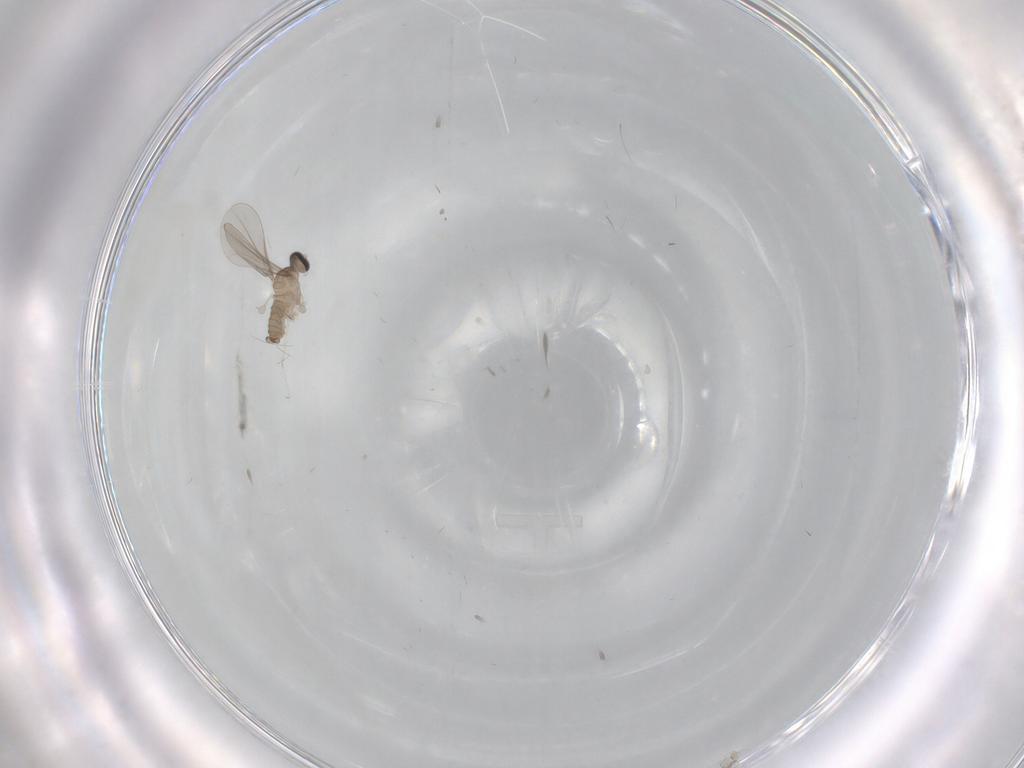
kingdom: Animalia
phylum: Arthropoda
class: Insecta
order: Diptera
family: Cecidomyiidae
